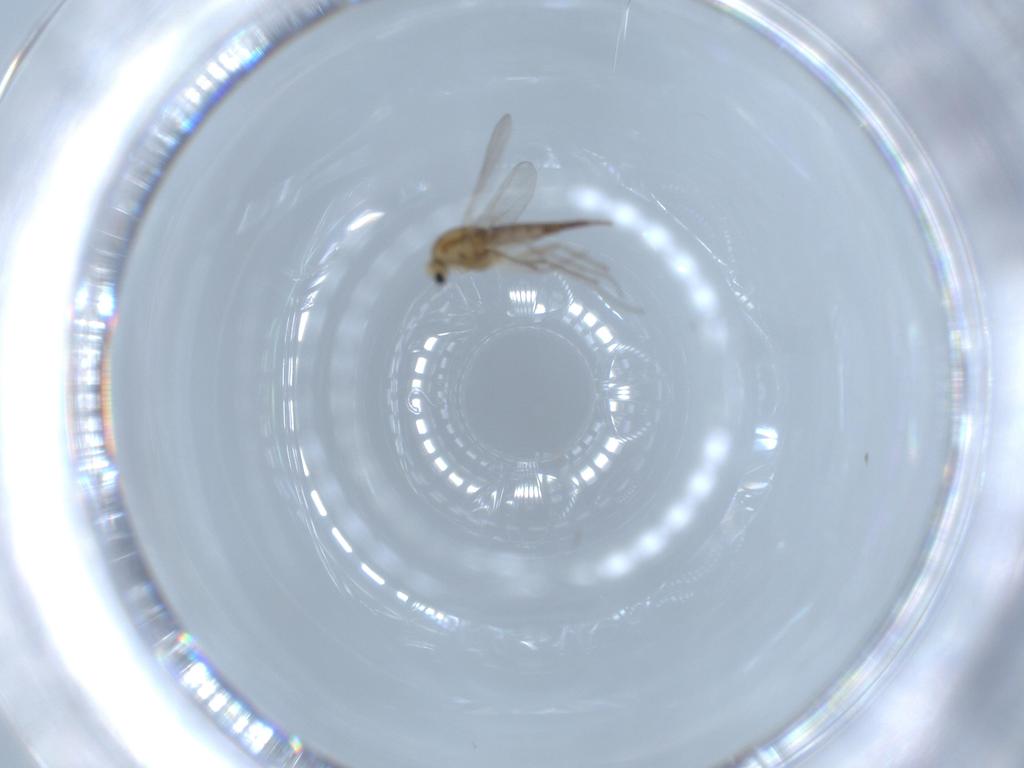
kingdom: Animalia
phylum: Arthropoda
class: Insecta
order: Diptera
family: Chironomidae
